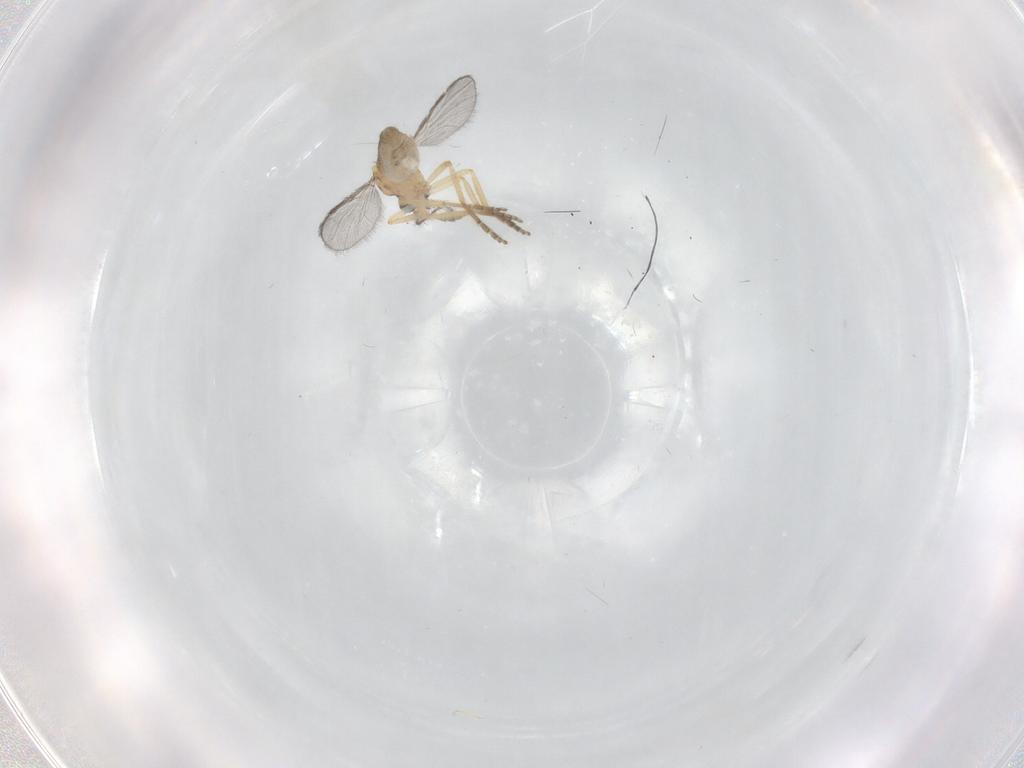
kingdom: Animalia
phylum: Arthropoda
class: Insecta
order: Diptera
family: Ceratopogonidae
